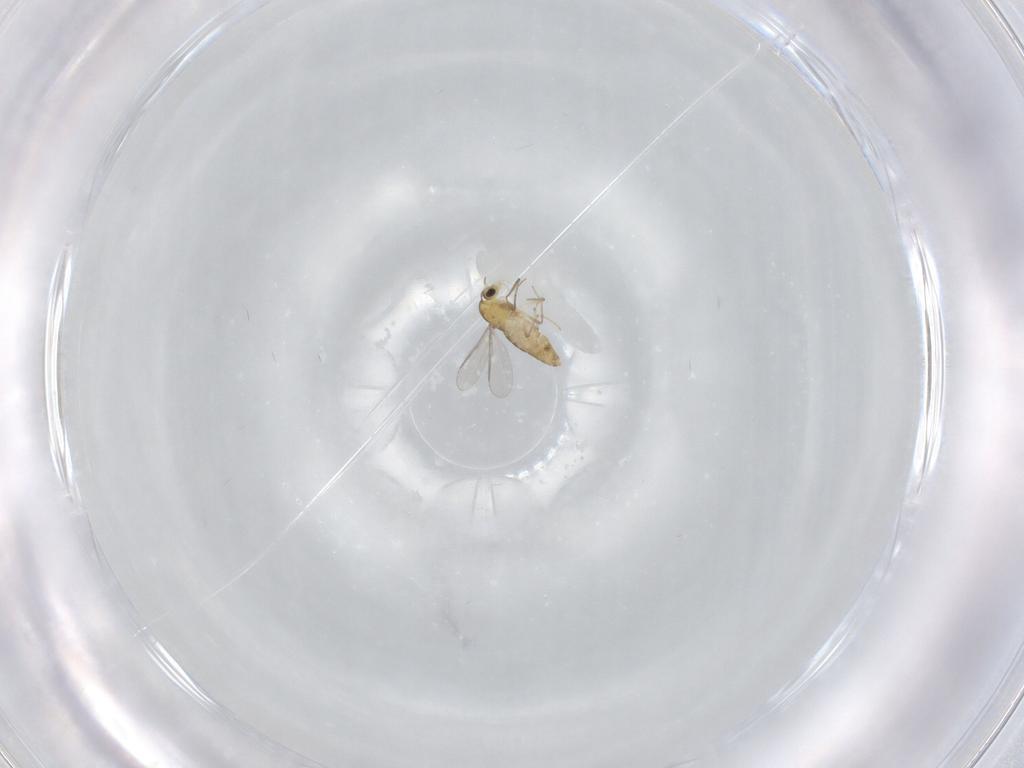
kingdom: Animalia
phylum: Arthropoda
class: Insecta
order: Diptera
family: Chironomidae
